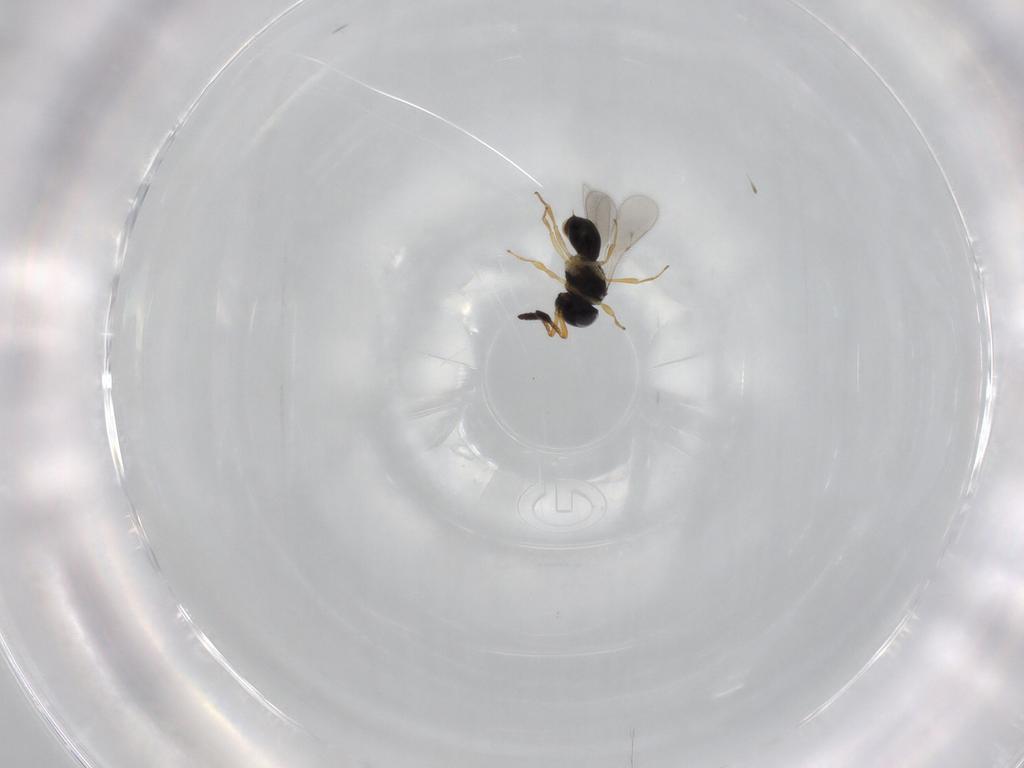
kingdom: Animalia
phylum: Arthropoda
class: Insecta
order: Hymenoptera
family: Scelionidae
